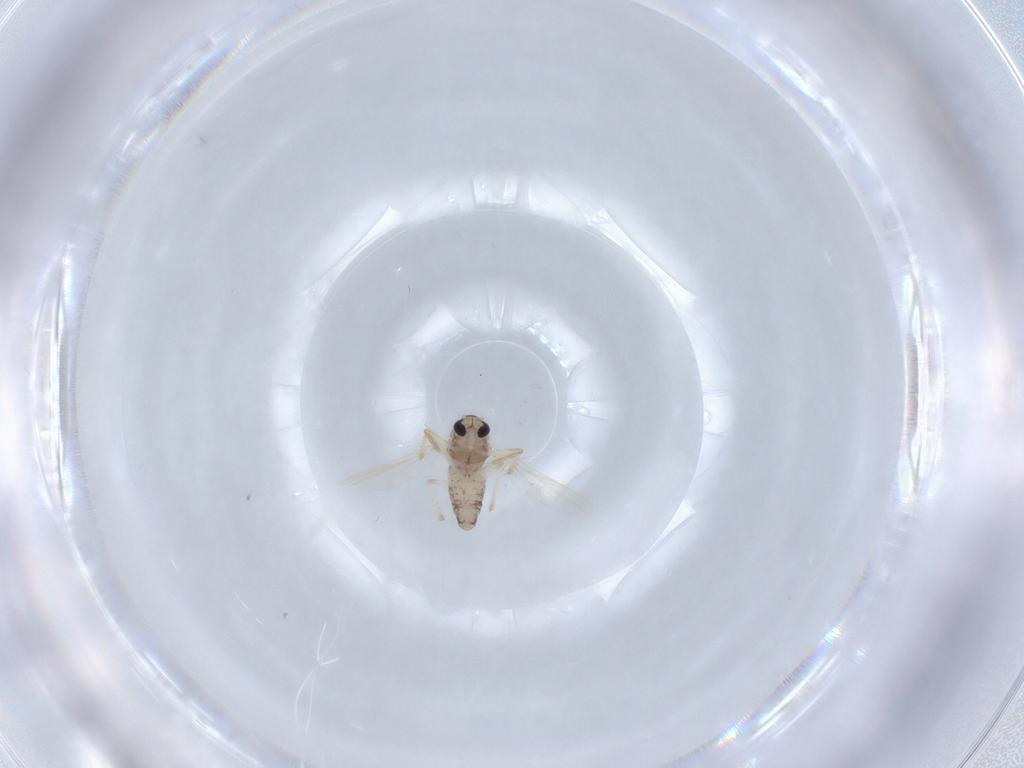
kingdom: Animalia
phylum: Arthropoda
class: Insecta
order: Diptera
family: Chironomidae
